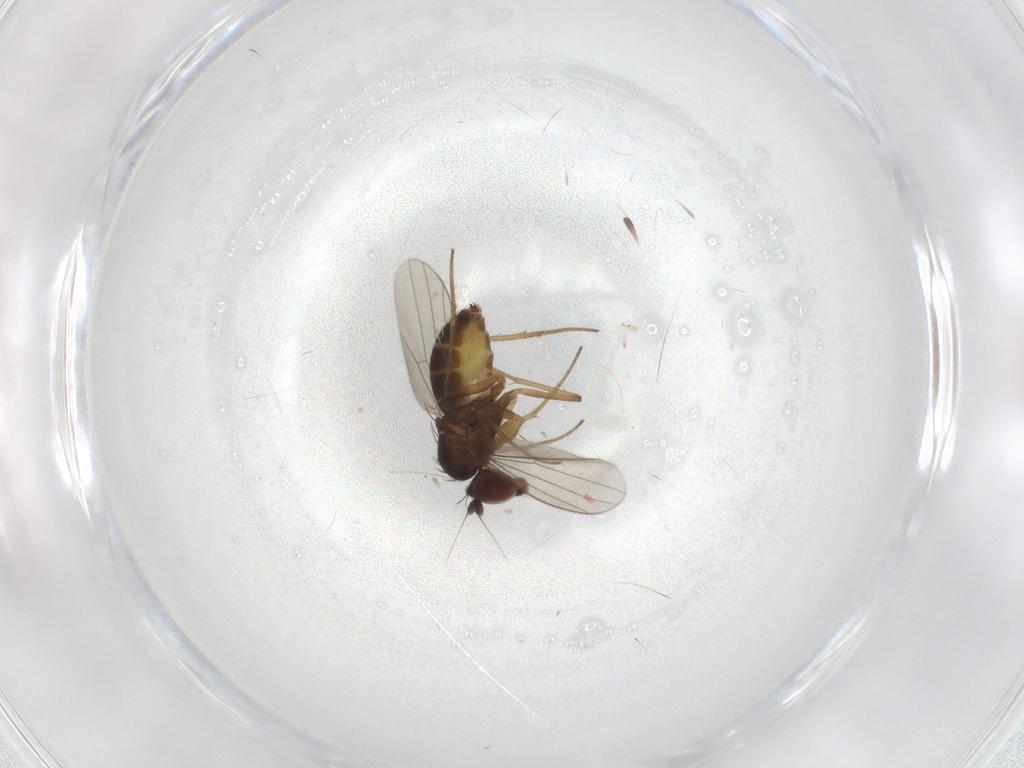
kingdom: Animalia
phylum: Arthropoda
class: Insecta
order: Diptera
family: Dolichopodidae
